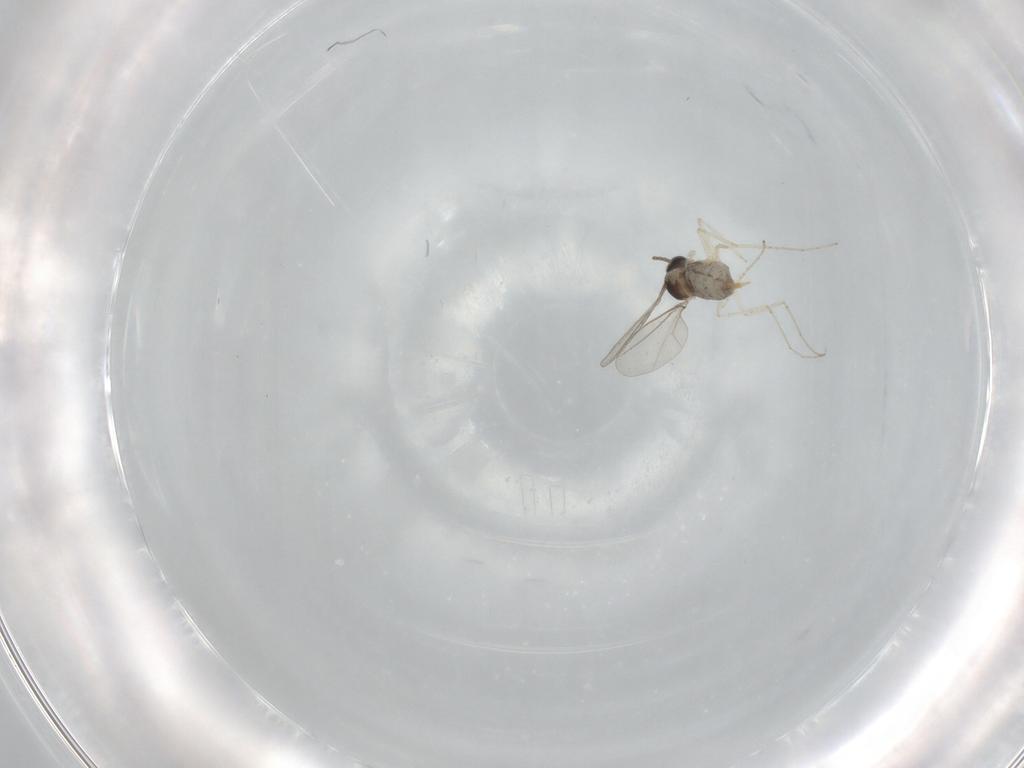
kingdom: Animalia
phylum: Arthropoda
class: Insecta
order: Diptera
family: Cecidomyiidae
